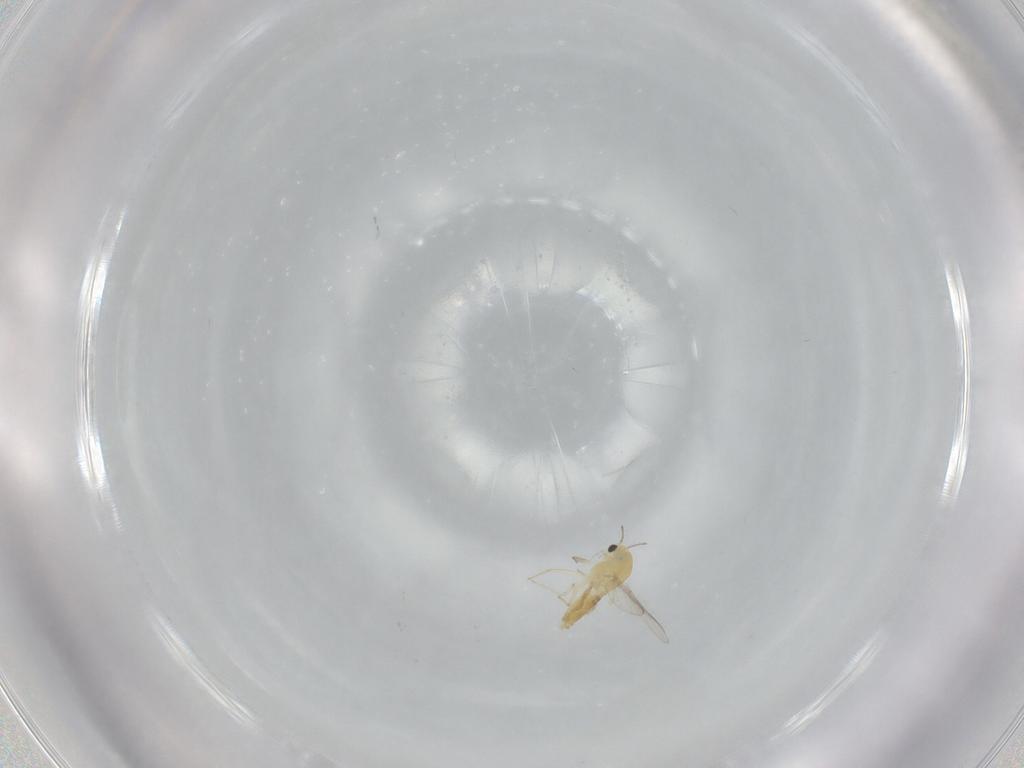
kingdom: Animalia
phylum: Arthropoda
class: Insecta
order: Diptera
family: Chironomidae
